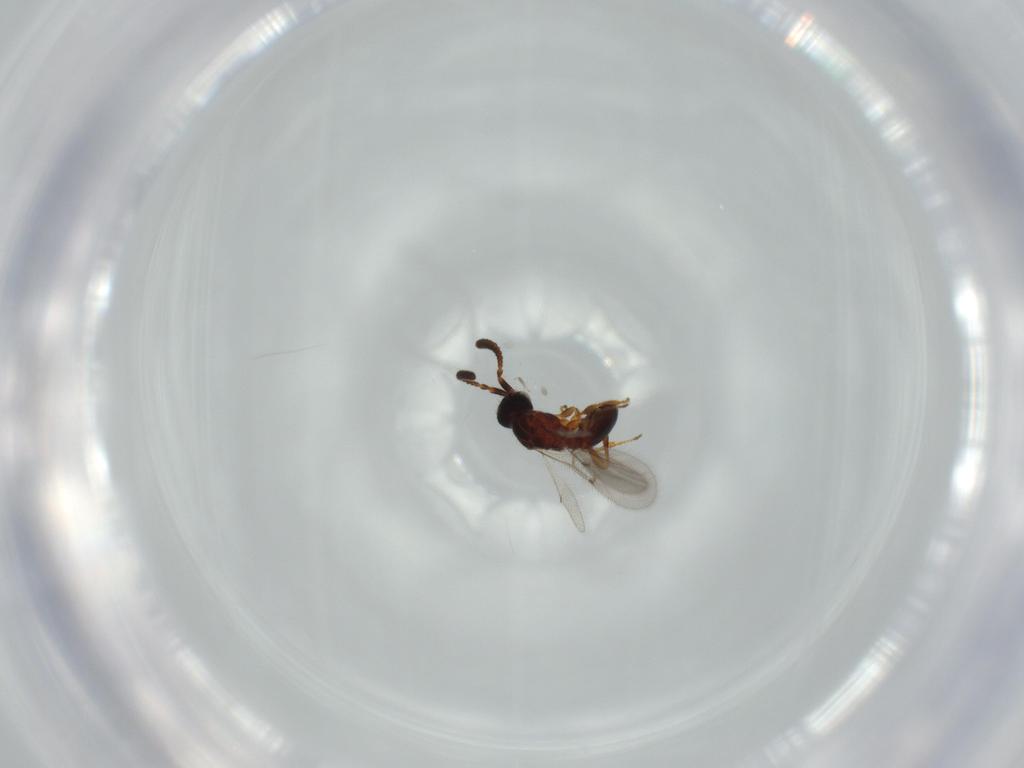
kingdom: Animalia
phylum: Arthropoda
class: Insecta
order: Hymenoptera
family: Diapriidae
